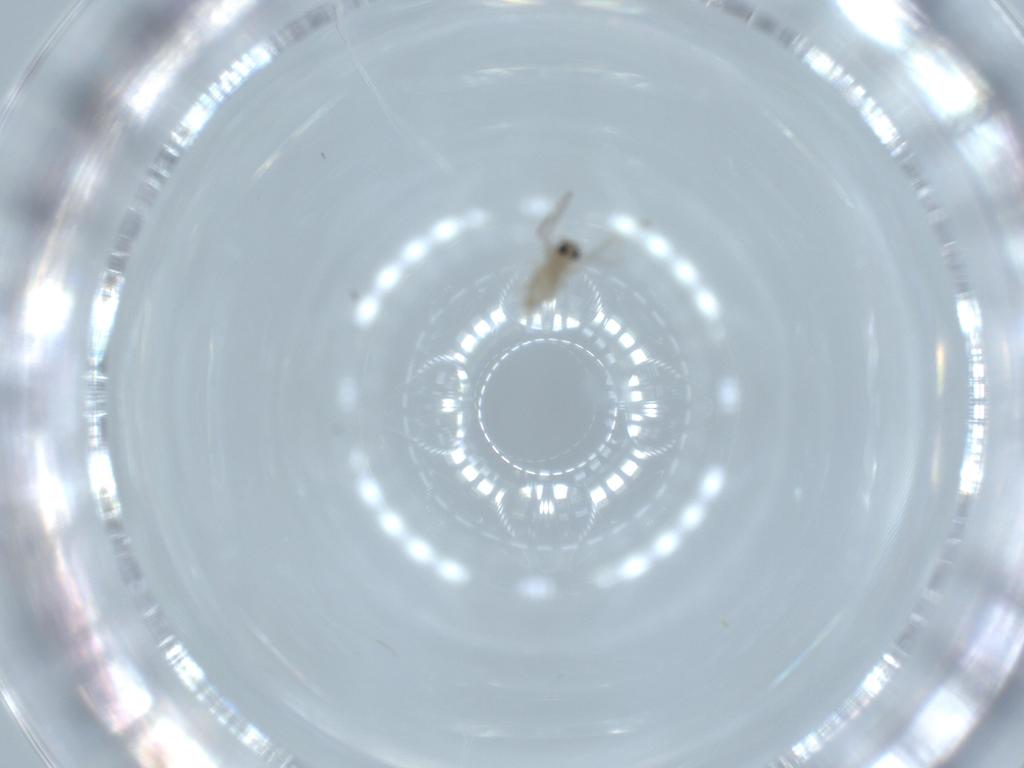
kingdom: Animalia
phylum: Arthropoda
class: Insecta
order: Diptera
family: Cecidomyiidae
